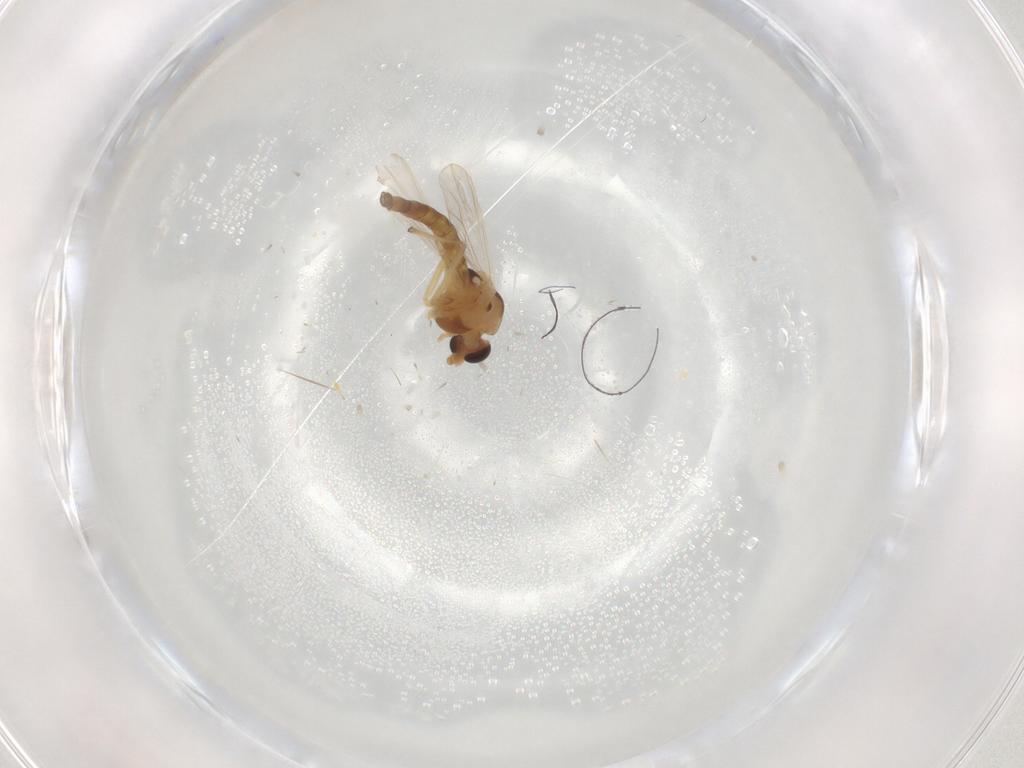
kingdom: Animalia
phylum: Arthropoda
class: Insecta
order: Diptera
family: Chironomidae
